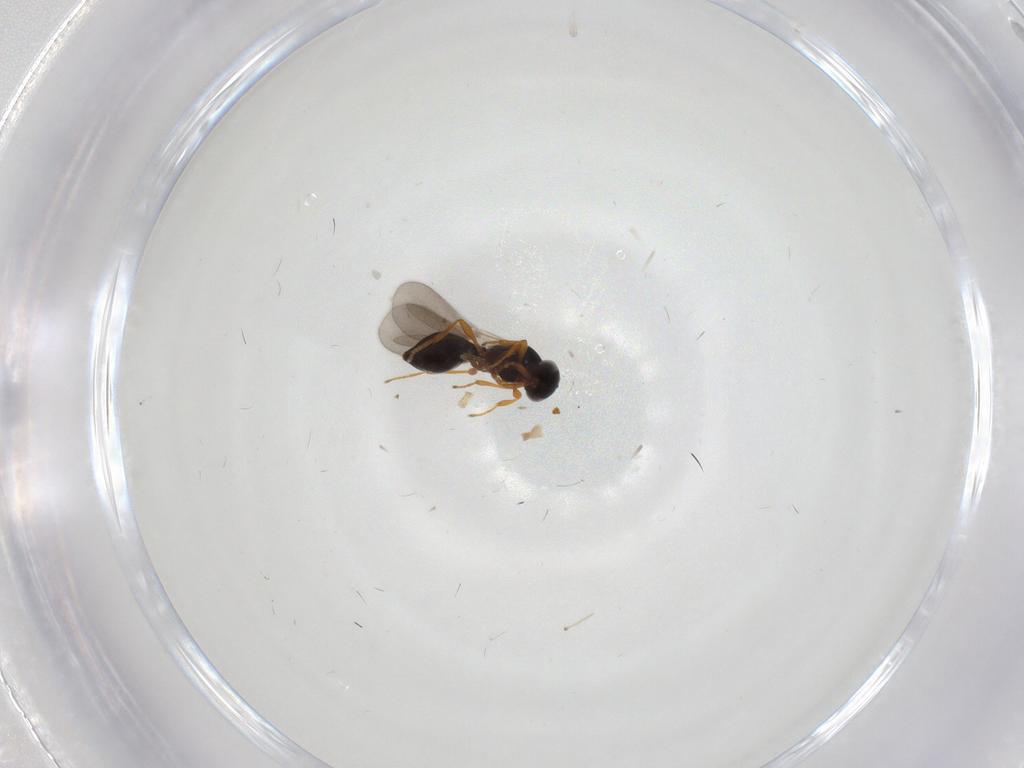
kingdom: Animalia
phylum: Arthropoda
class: Insecta
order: Hymenoptera
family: Platygastridae
